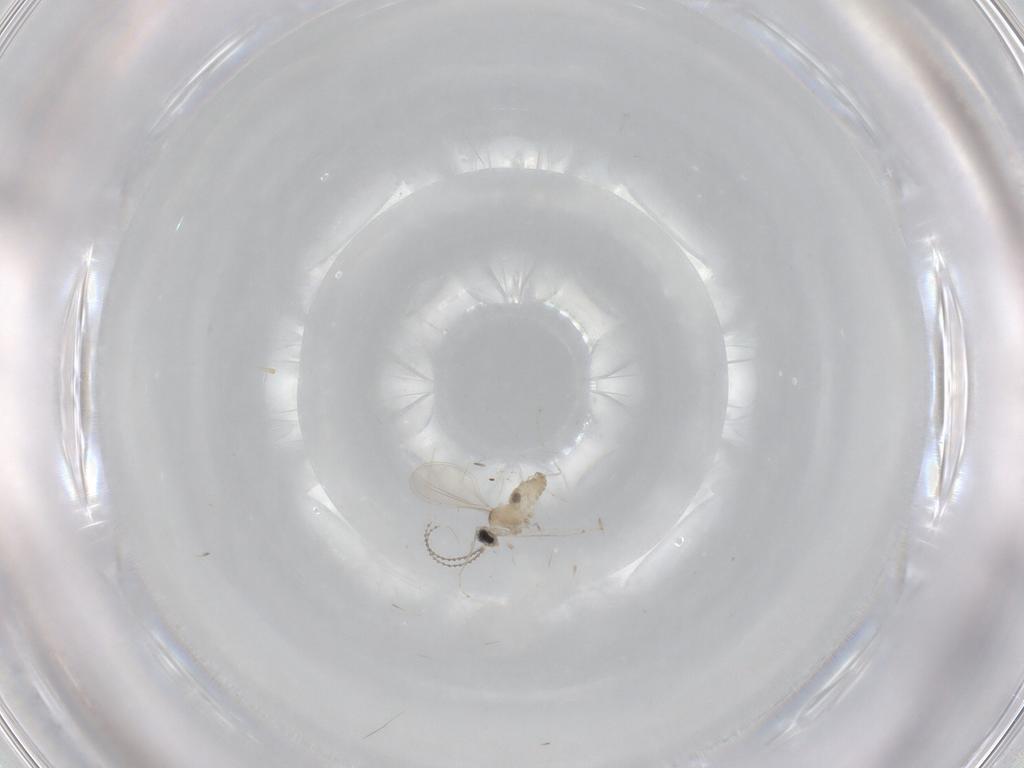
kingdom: Animalia
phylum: Arthropoda
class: Insecta
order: Diptera
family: Cecidomyiidae
